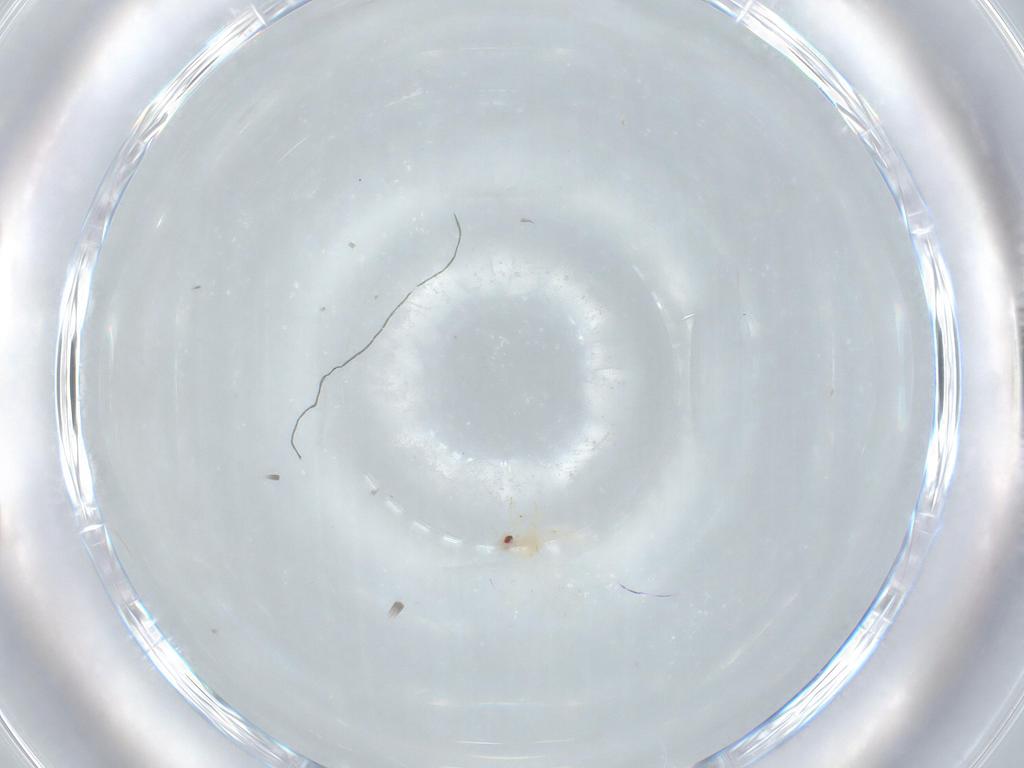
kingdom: Animalia
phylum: Arthropoda
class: Insecta
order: Hemiptera
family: Aleyrodidae
